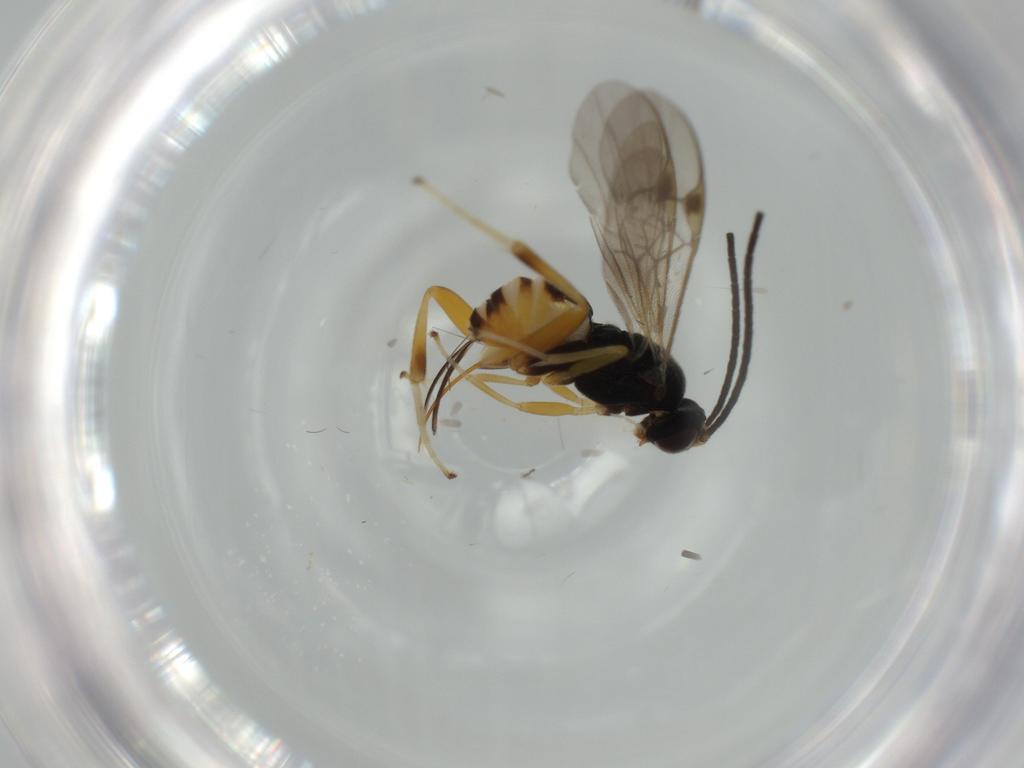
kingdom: Animalia
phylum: Arthropoda
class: Insecta
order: Hymenoptera
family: Braconidae
